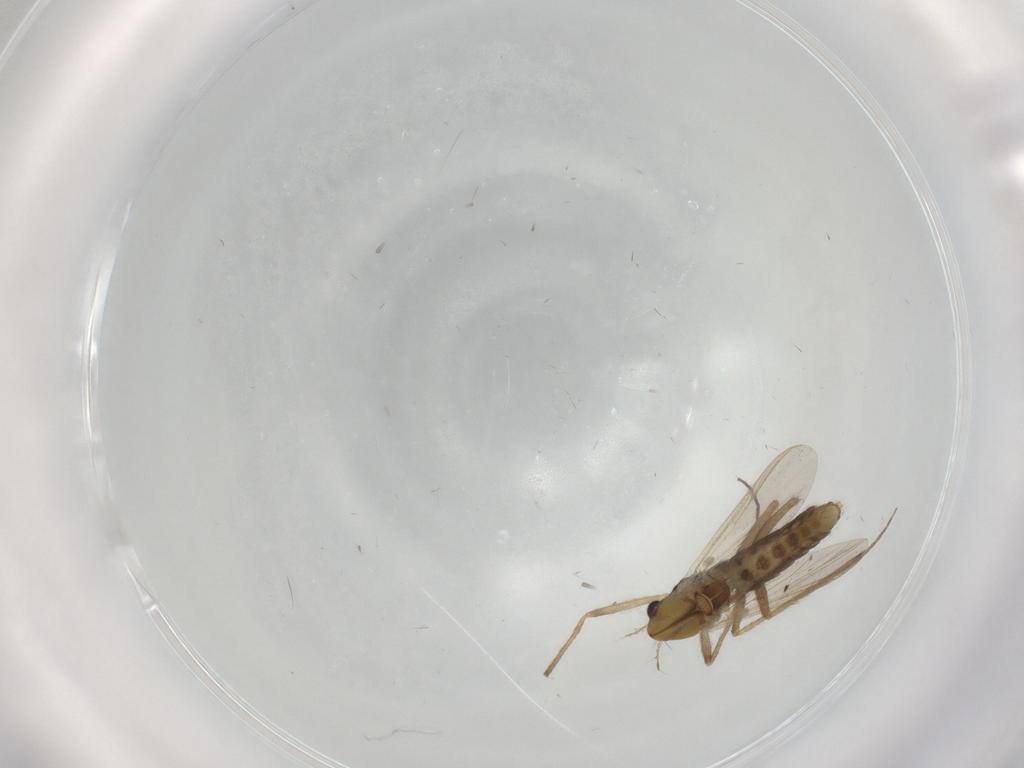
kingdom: Animalia
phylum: Arthropoda
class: Insecta
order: Diptera
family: Chironomidae
